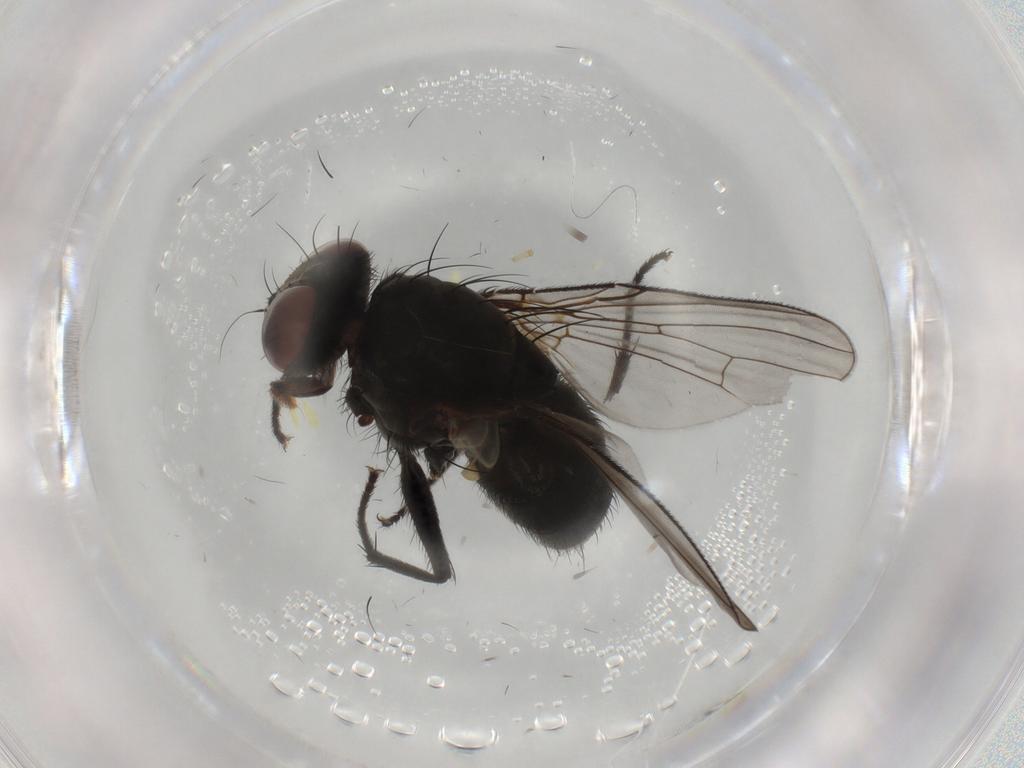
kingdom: Animalia
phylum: Arthropoda
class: Insecta
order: Diptera
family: Muscidae
